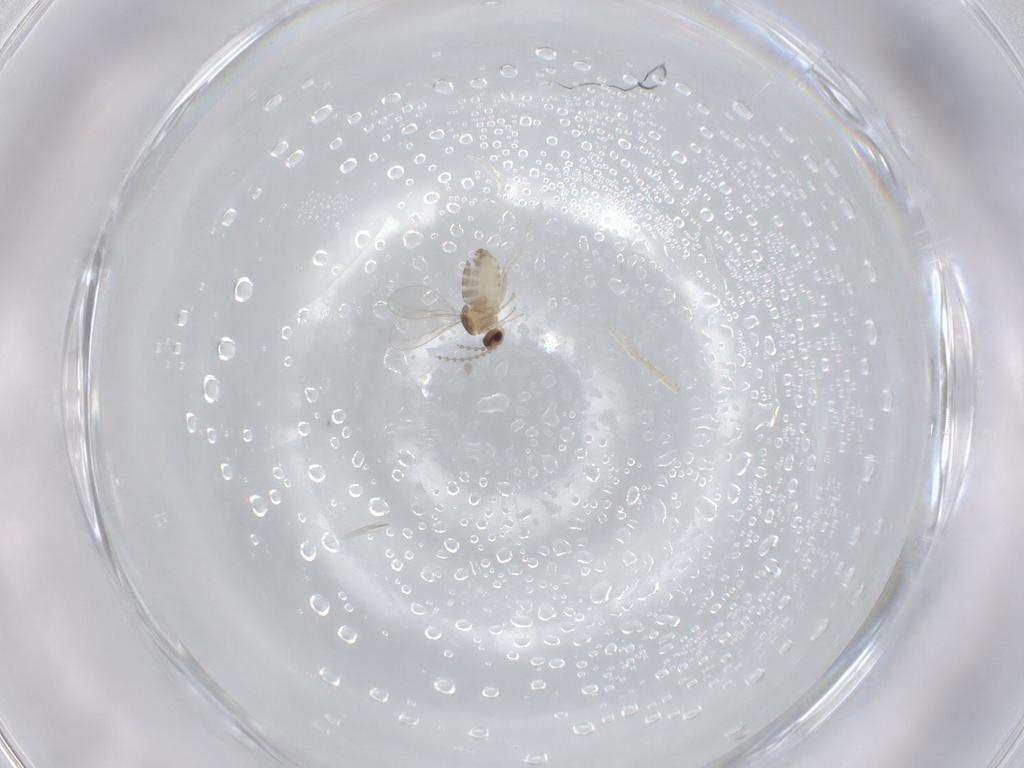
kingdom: Animalia
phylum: Arthropoda
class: Insecta
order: Diptera
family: Cecidomyiidae
